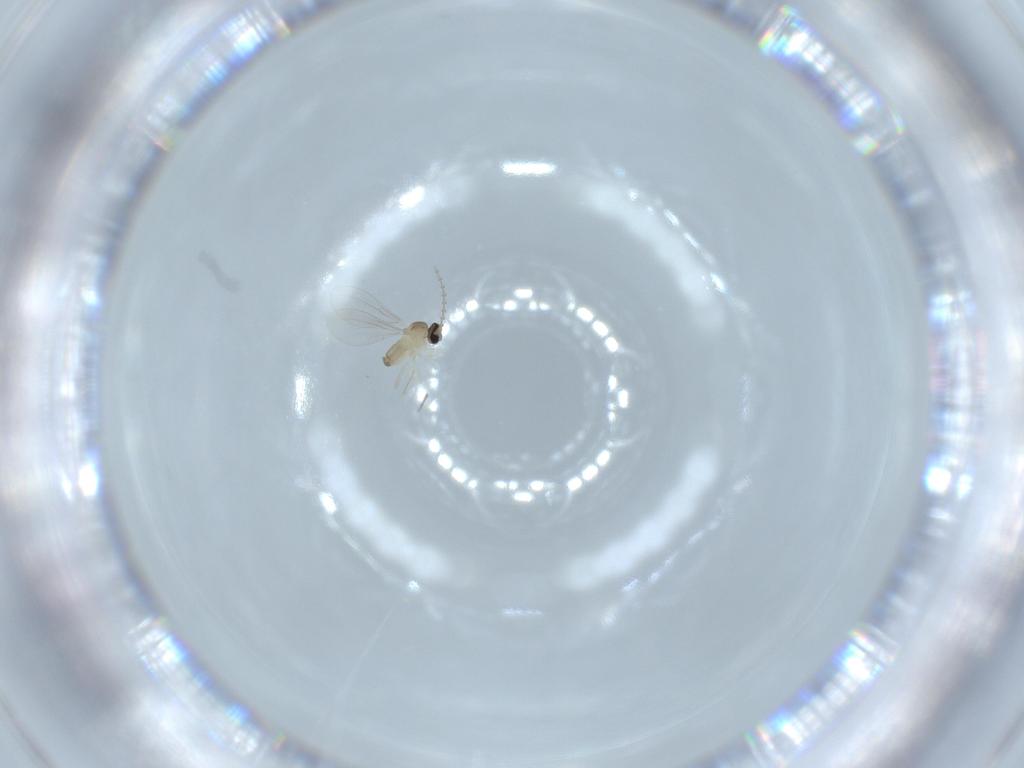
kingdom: Animalia
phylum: Arthropoda
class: Insecta
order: Diptera
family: Cecidomyiidae
